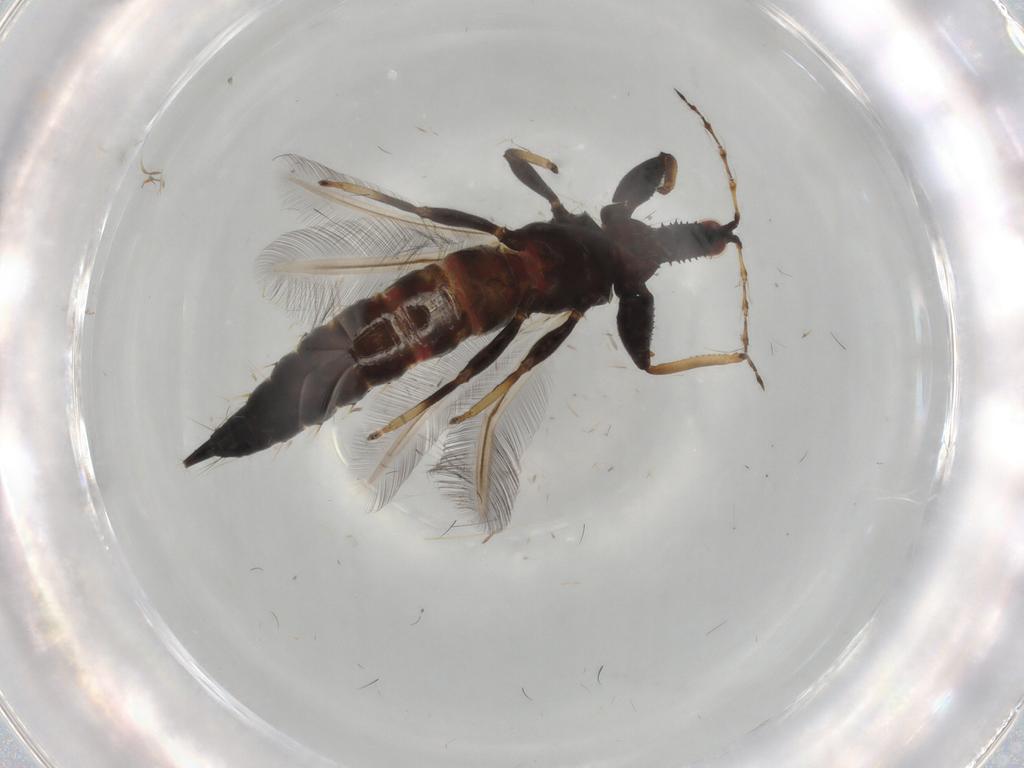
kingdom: Animalia
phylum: Arthropoda
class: Insecta
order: Thysanoptera
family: Phlaeothripidae
